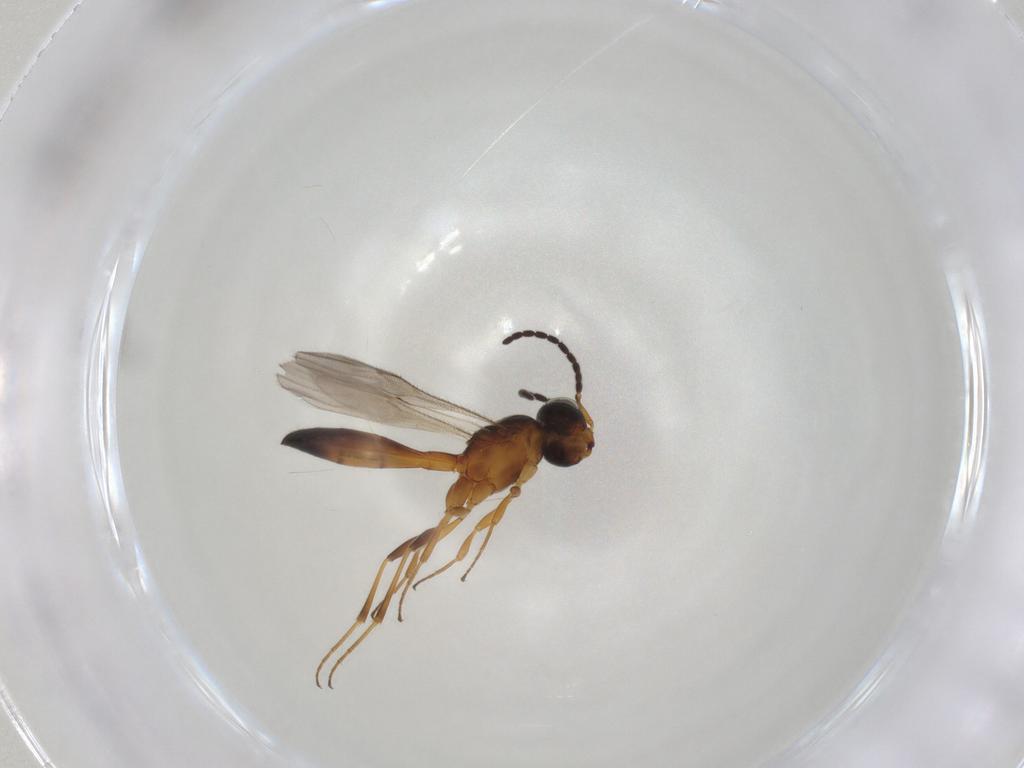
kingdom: Animalia
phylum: Arthropoda
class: Insecta
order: Hymenoptera
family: Scelionidae
